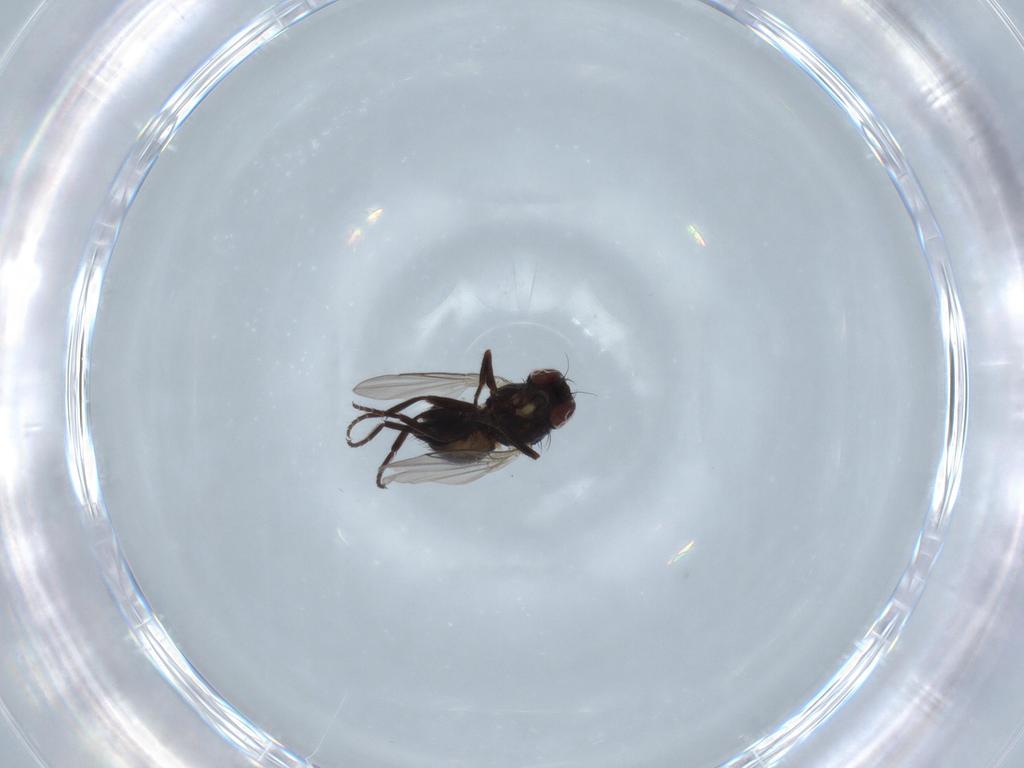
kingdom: Animalia
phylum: Arthropoda
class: Insecta
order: Diptera
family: Agromyzidae
